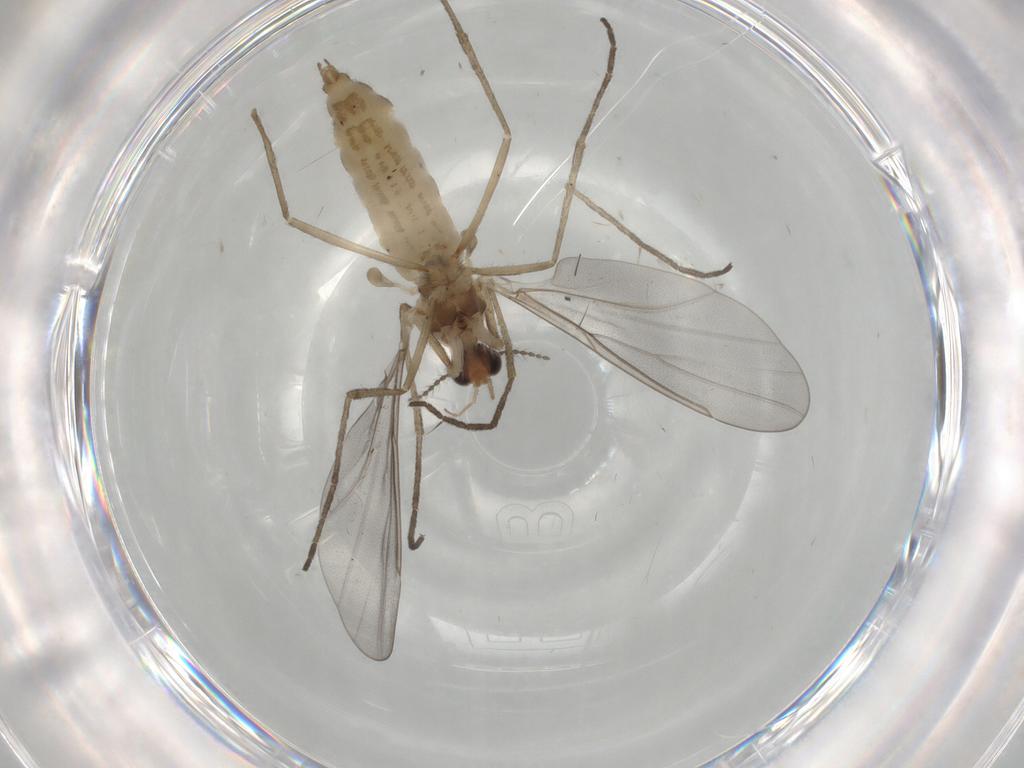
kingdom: Animalia
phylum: Arthropoda
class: Insecta
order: Diptera
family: Cecidomyiidae
